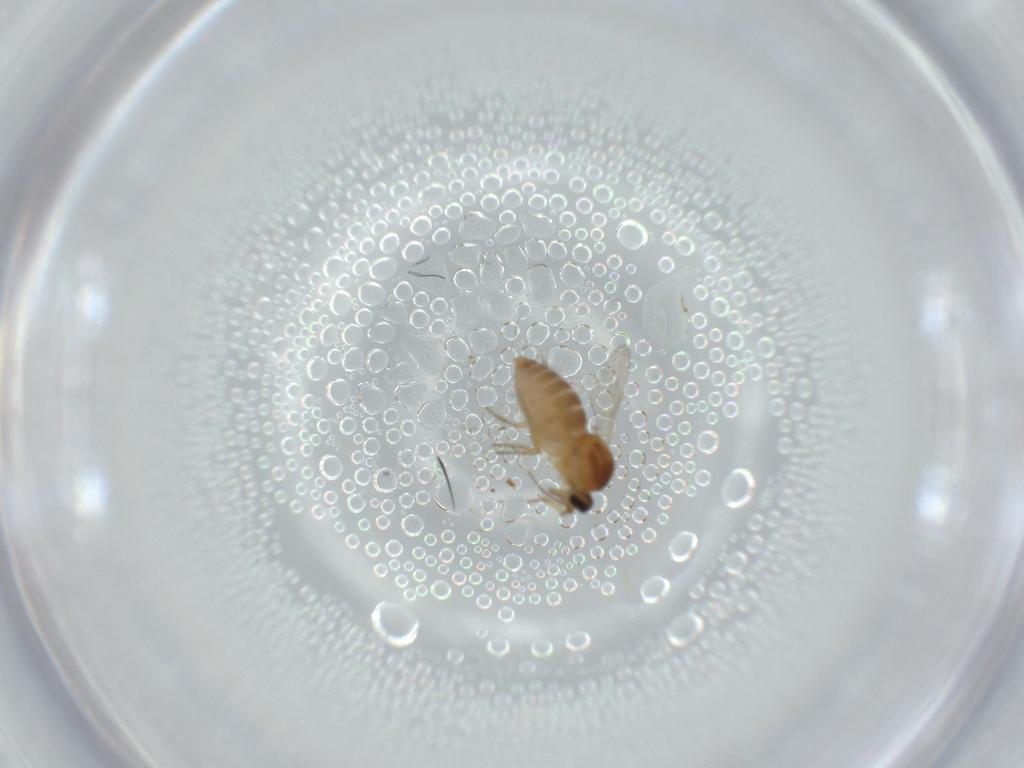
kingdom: Animalia
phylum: Arthropoda
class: Insecta
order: Diptera
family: Ceratopogonidae
